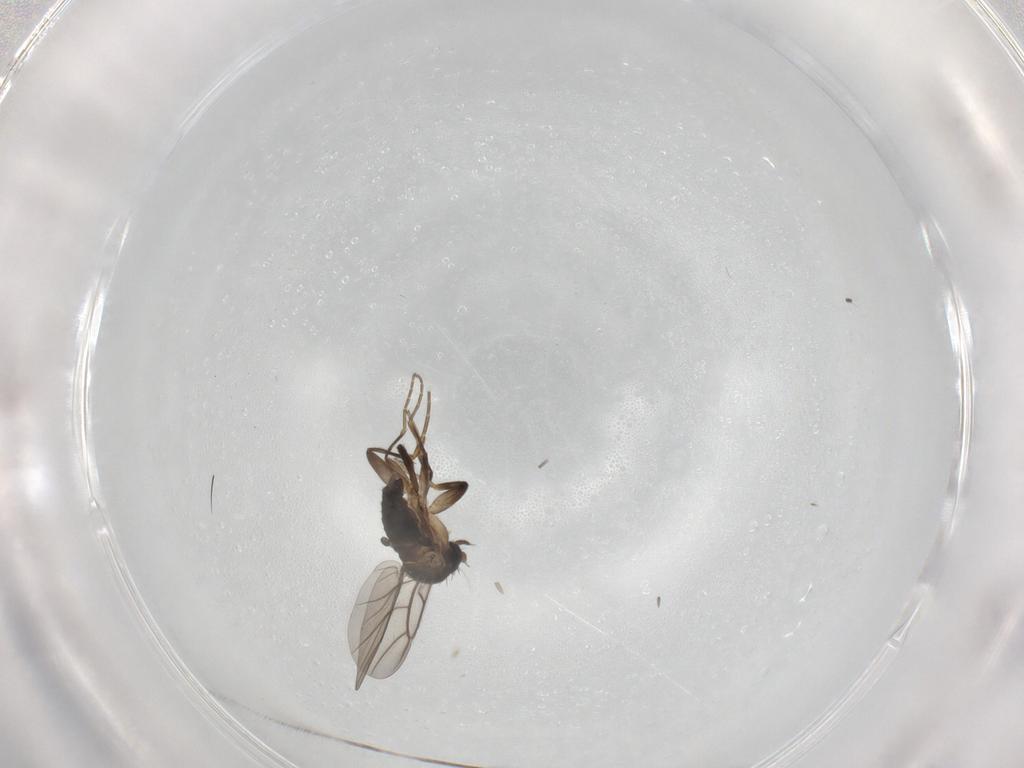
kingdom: Animalia
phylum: Arthropoda
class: Insecta
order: Diptera
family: Phoridae
